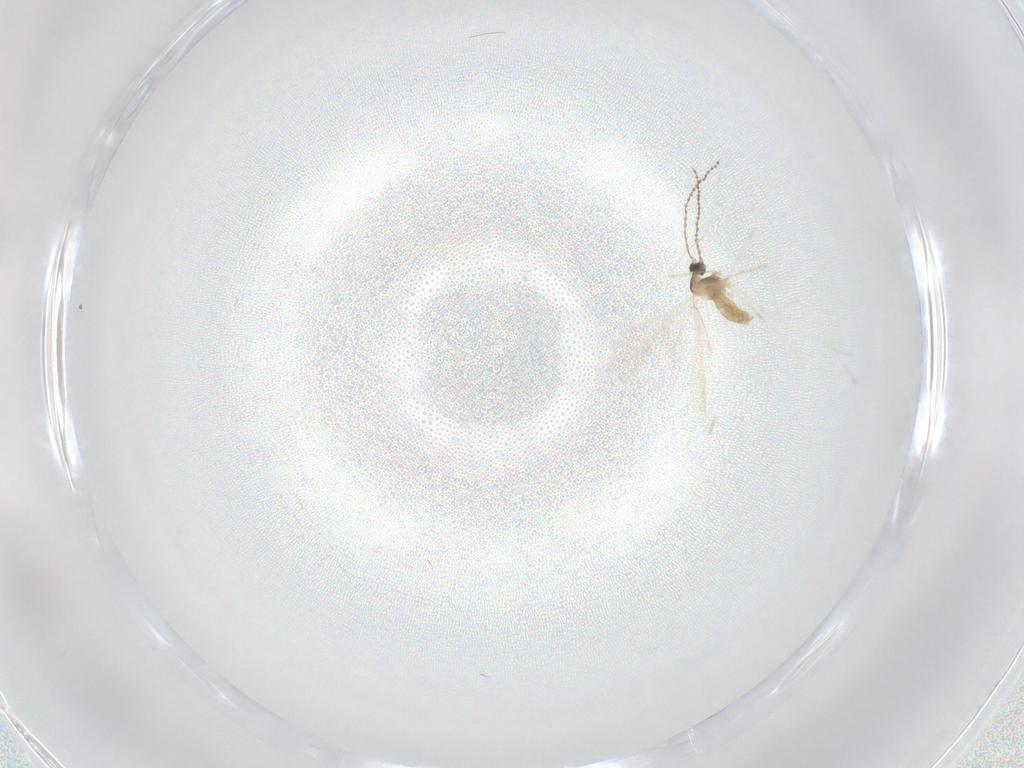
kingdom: Animalia
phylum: Arthropoda
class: Insecta
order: Diptera
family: Cecidomyiidae
